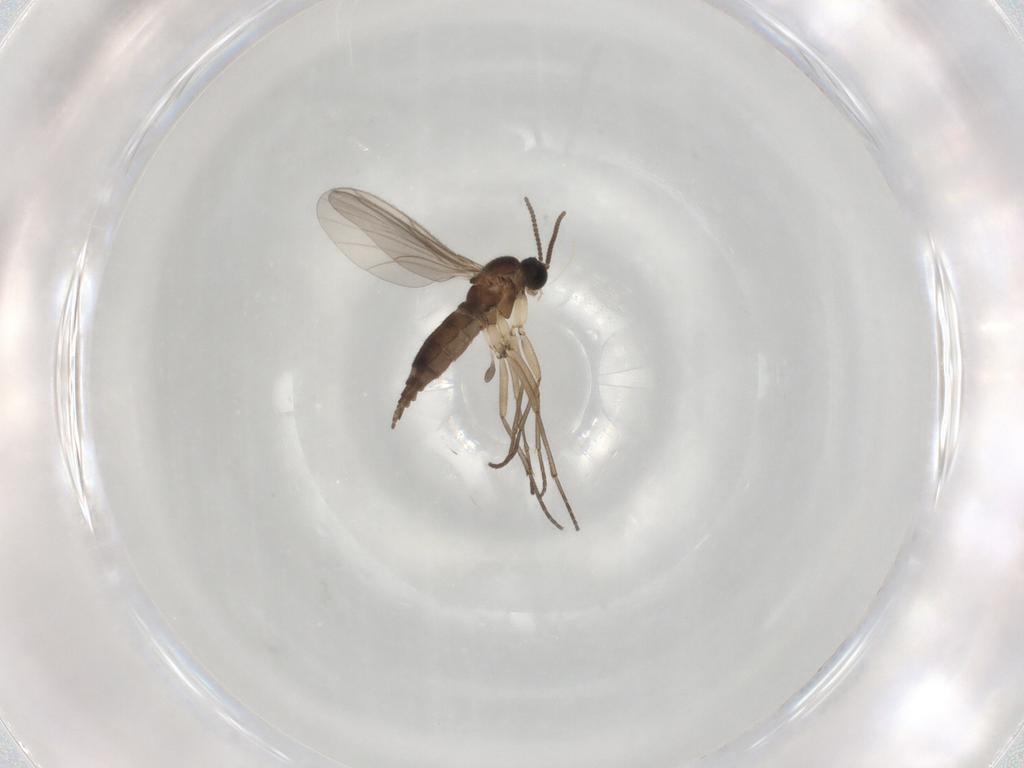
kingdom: Animalia
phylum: Arthropoda
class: Insecta
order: Diptera
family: Sciaridae
